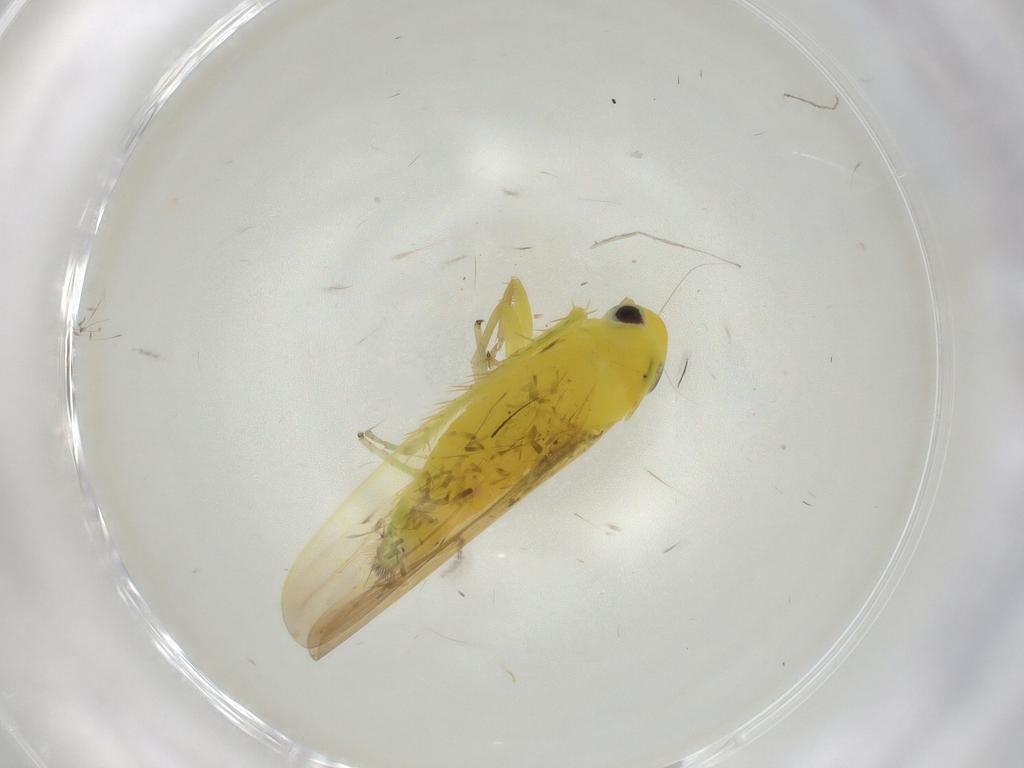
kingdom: Animalia
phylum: Arthropoda
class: Insecta
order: Hemiptera
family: Cicadellidae
